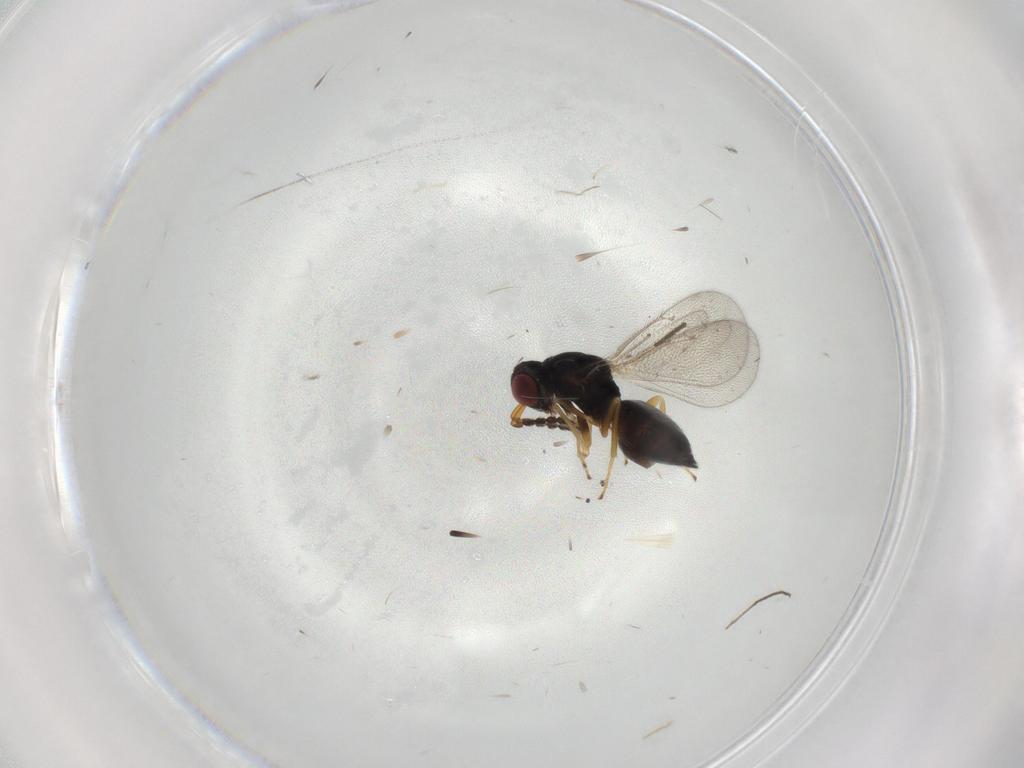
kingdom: Animalia
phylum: Arthropoda
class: Insecta
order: Hymenoptera
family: Eulophidae
